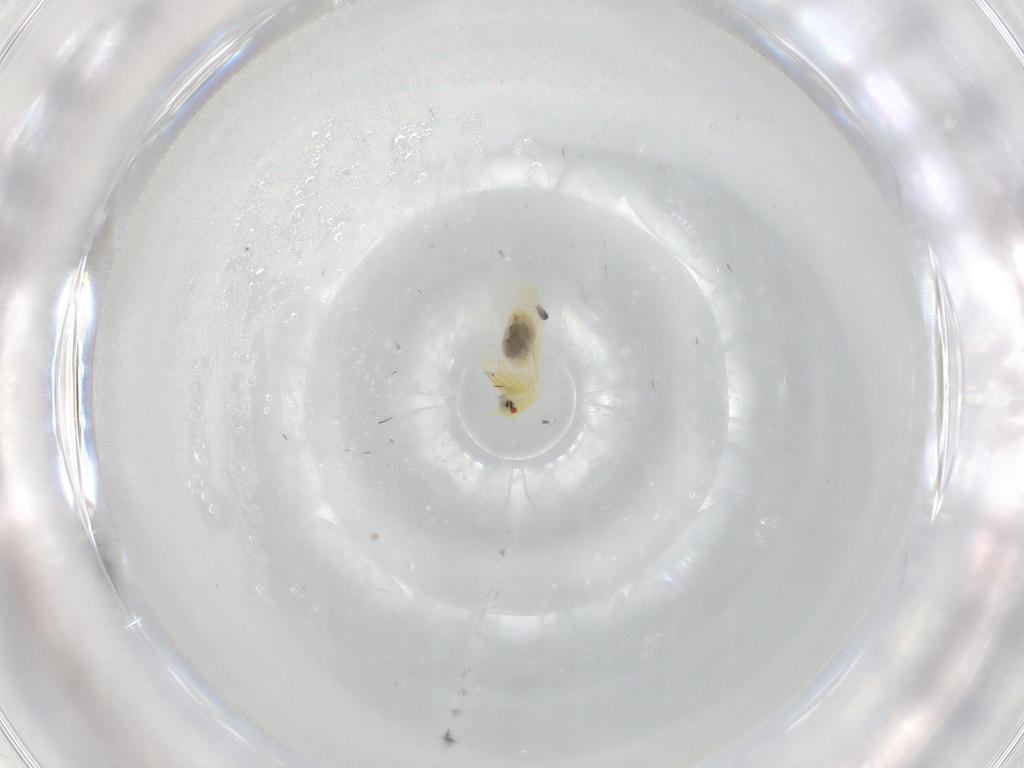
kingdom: Animalia
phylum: Arthropoda
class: Insecta
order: Hemiptera
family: Aleyrodidae
